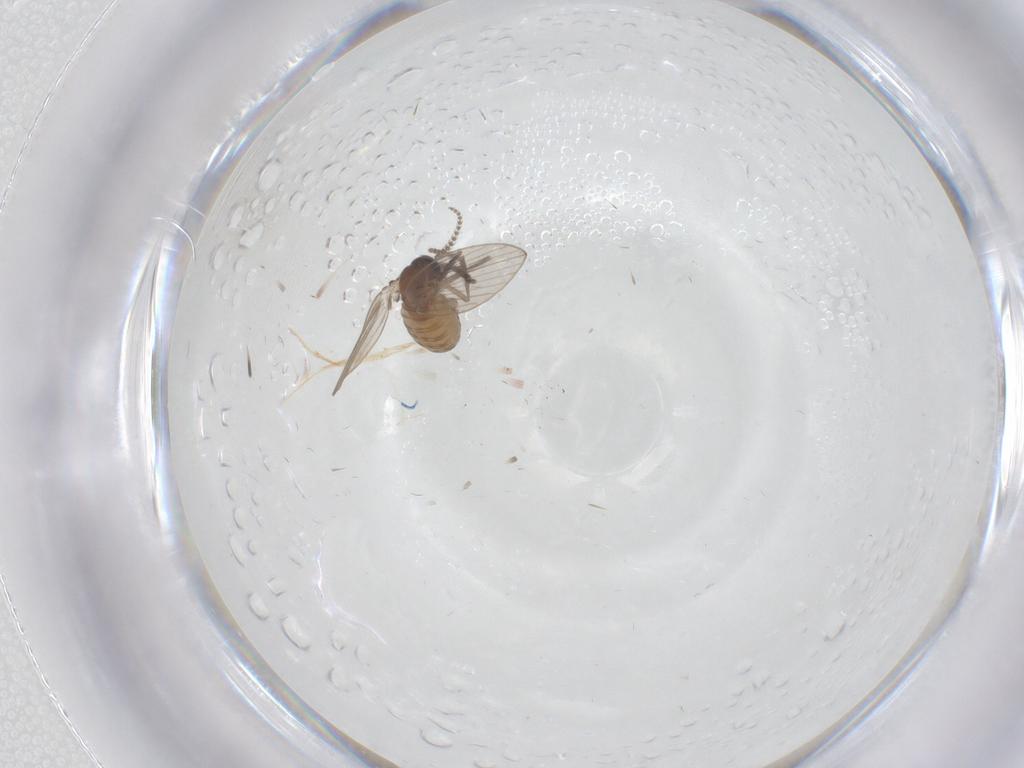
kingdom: Animalia
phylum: Arthropoda
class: Insecta
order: Diptera
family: Psychodidae
